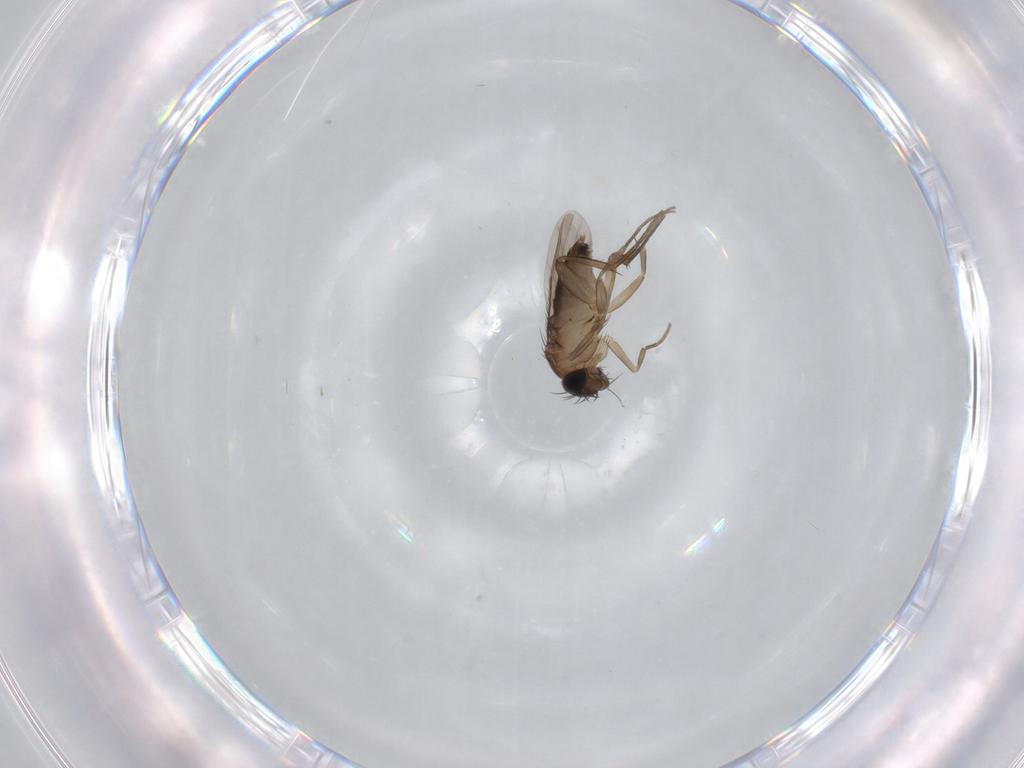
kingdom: Animalia
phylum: Arthropoda
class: Insecta
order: Diptera
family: Phoridae
